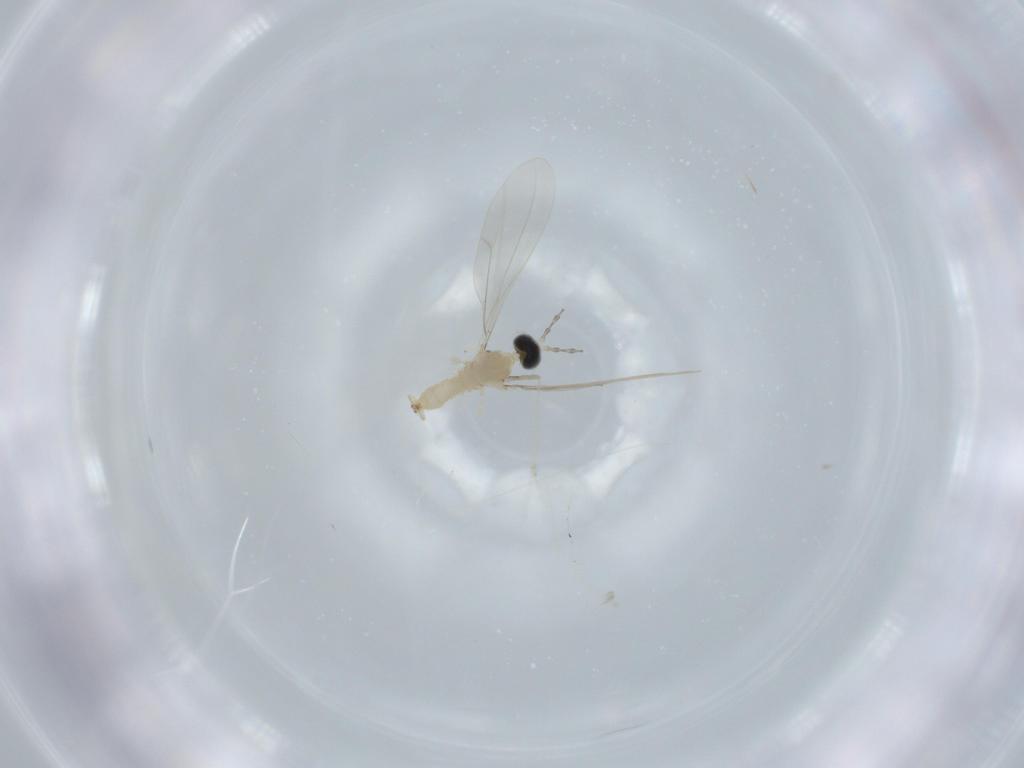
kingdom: Animalia
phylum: Arthropoda
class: Insecta
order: Diptera
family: Cecidomyiidae
